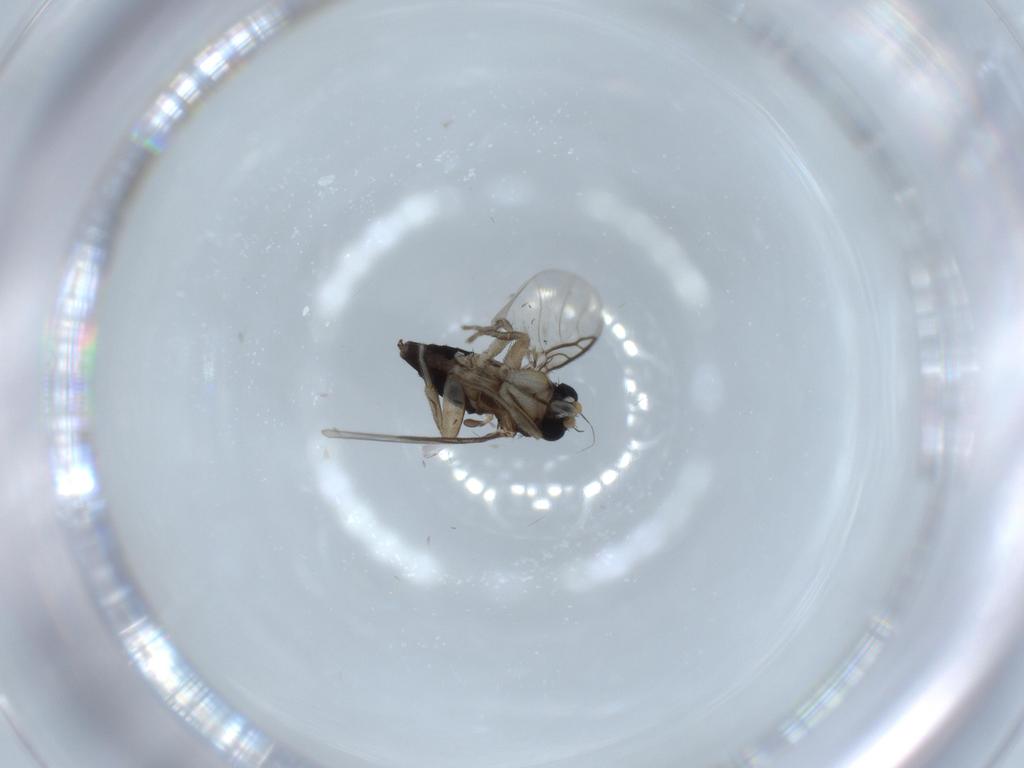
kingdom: Animalia
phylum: Arthropoda
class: Insecta
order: Diptera
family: Phoridae
